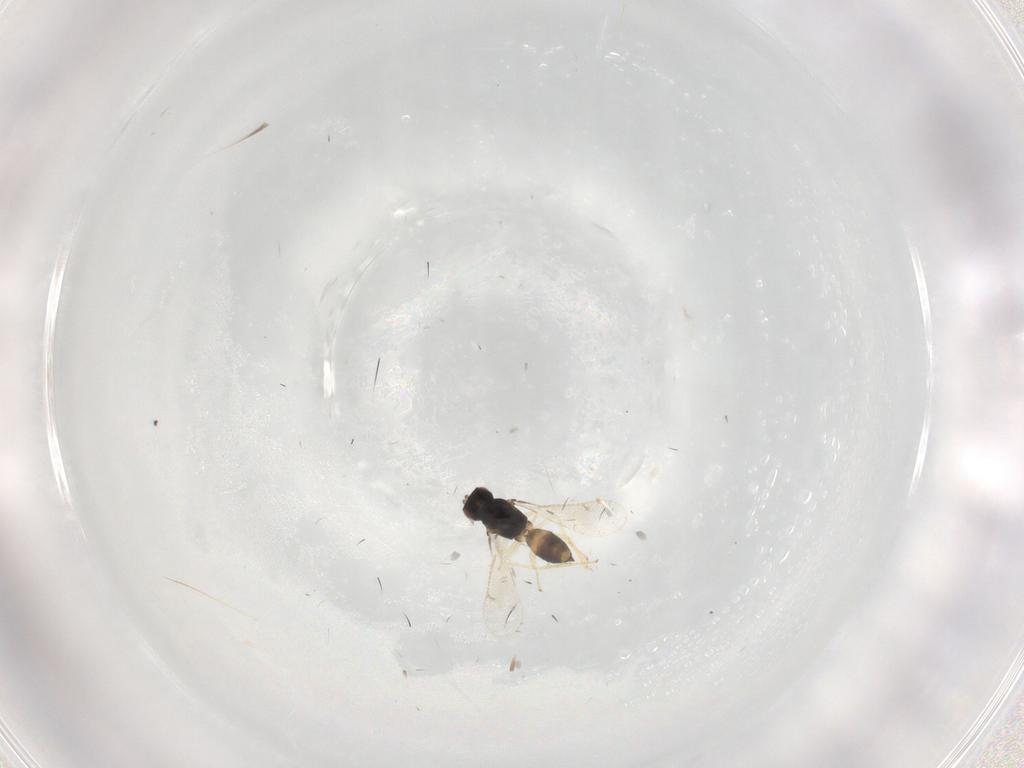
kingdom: Animalia
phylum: Arthropoda
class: Insecta
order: Hymenoptera
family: Eulophidae
